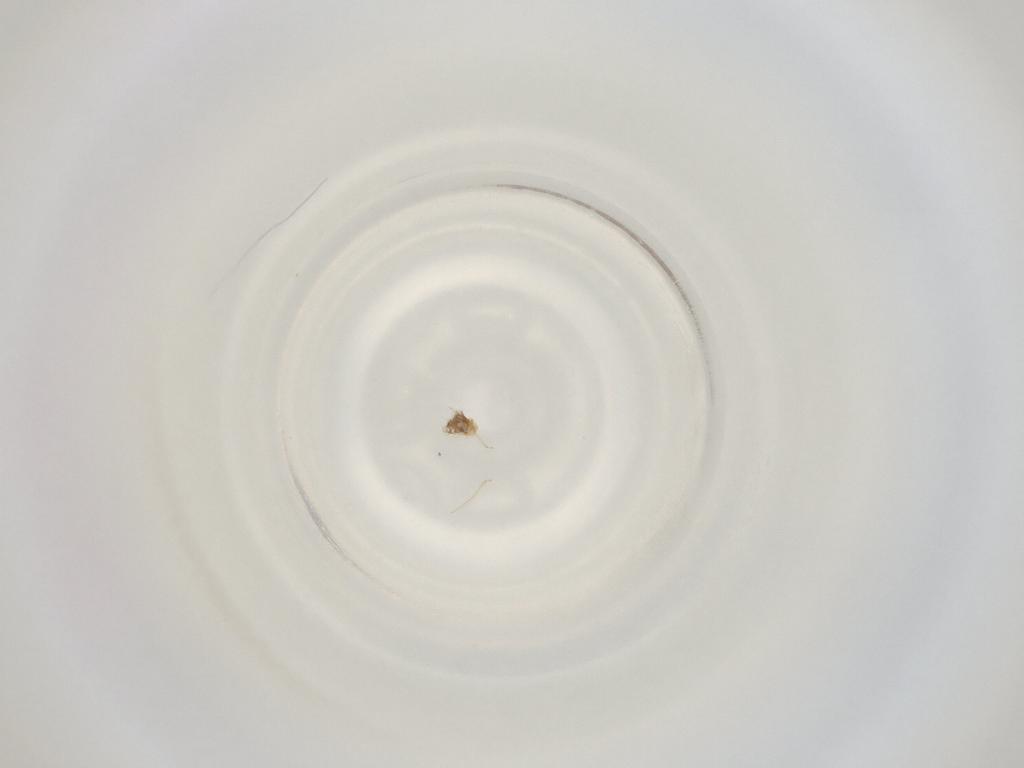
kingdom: Animalia
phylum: Arthropoda
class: Insecta
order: Diptera
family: Cecidomyiidae
